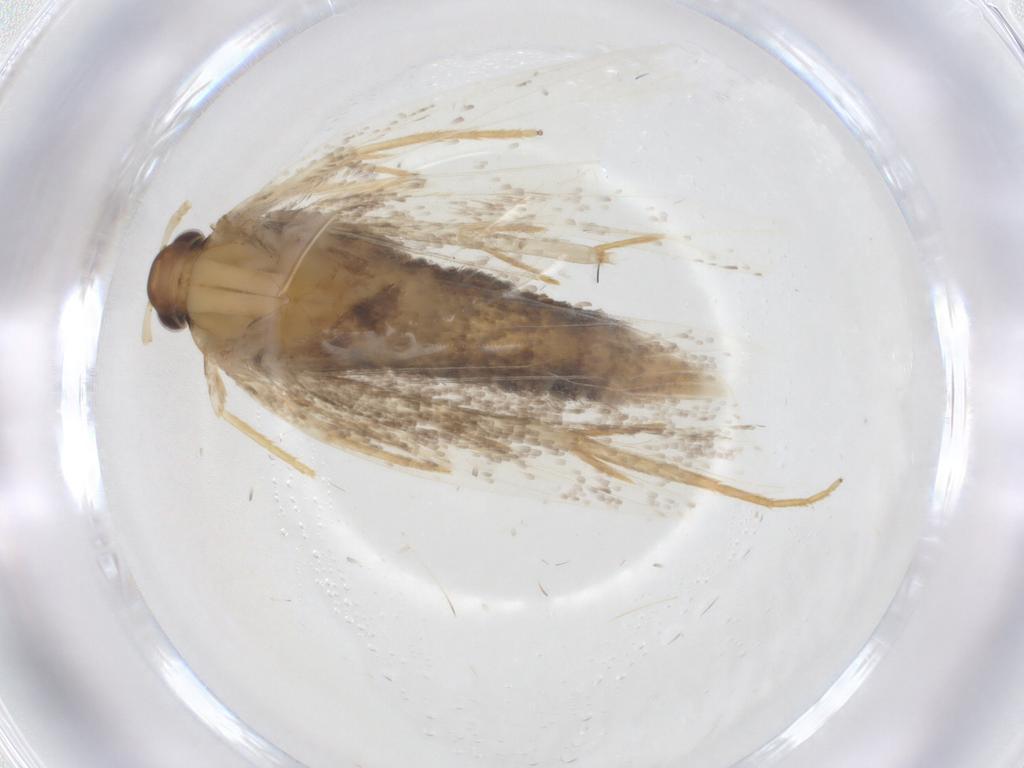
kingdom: Animalia
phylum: Arthropoda
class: Insecta
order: Lepidoptera
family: Lecithoceridae
